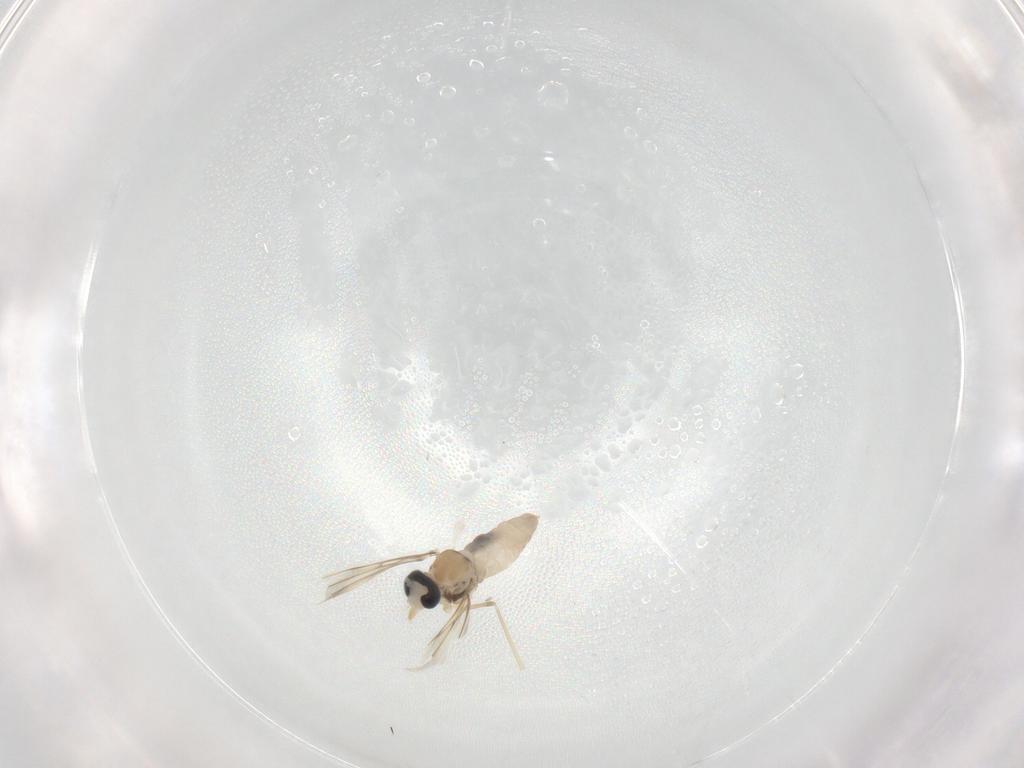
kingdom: Animalia
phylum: Arthropoda
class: Insecta
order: Diptera
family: Cecidomyiidae
